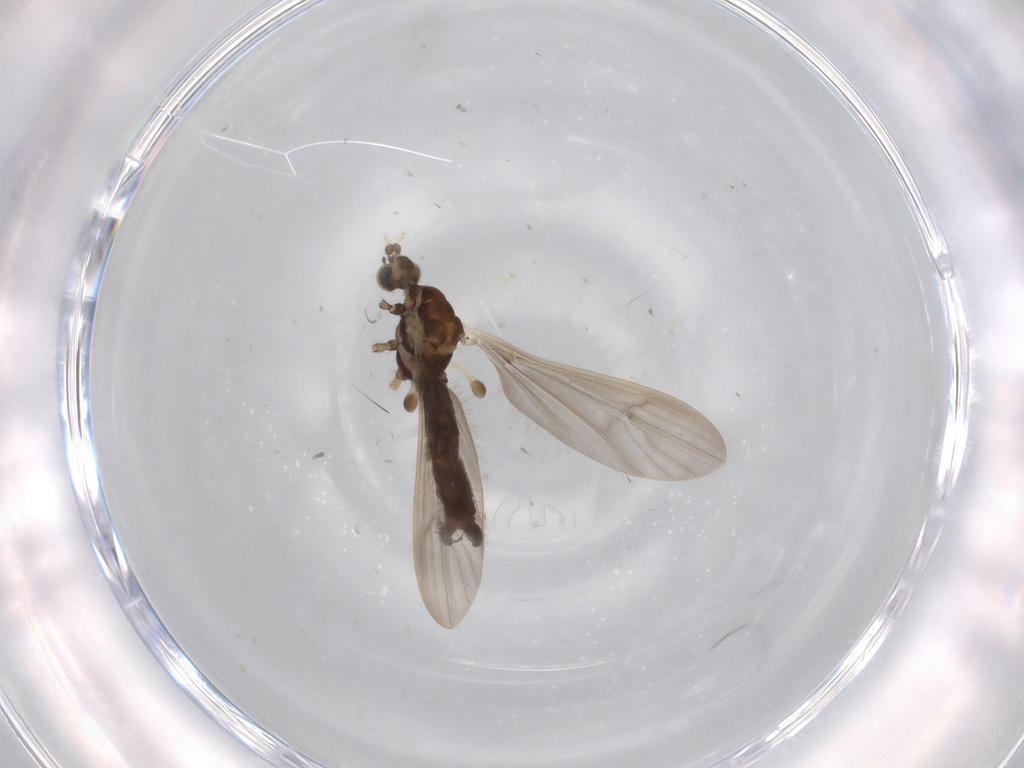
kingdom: Animalia
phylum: Arthropoda
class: Insecta
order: Diptera
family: Limoniidae
